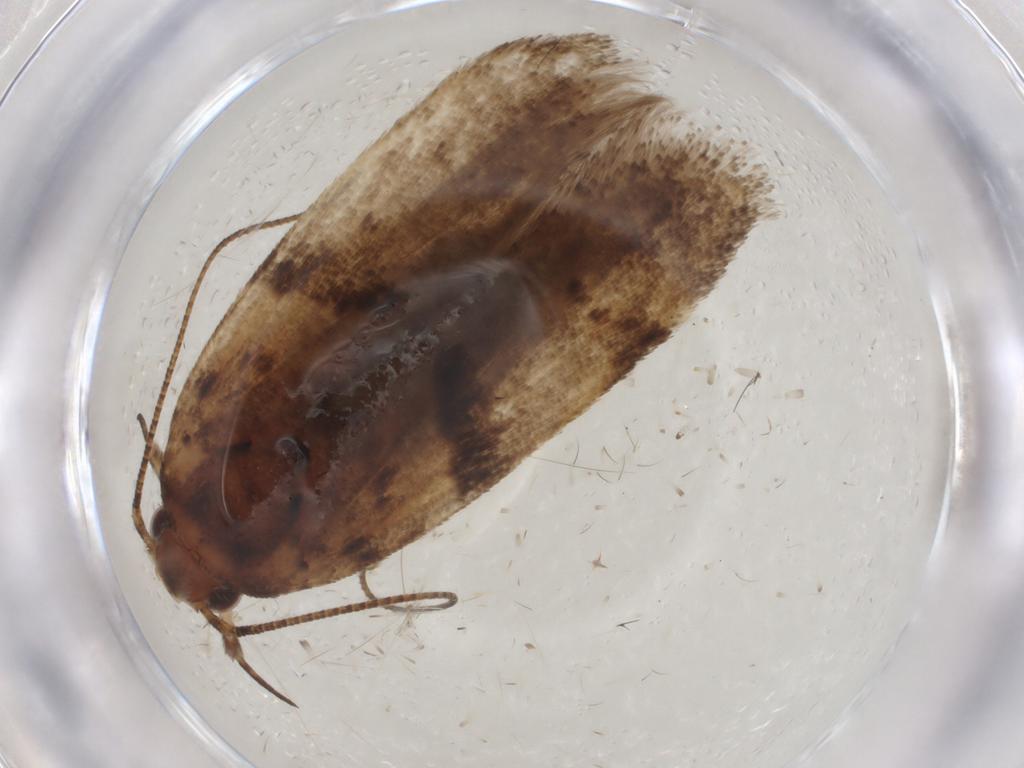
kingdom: Animalia
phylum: Arthropoda
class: Insecta
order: Lepidoptera
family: Gelechiidae
